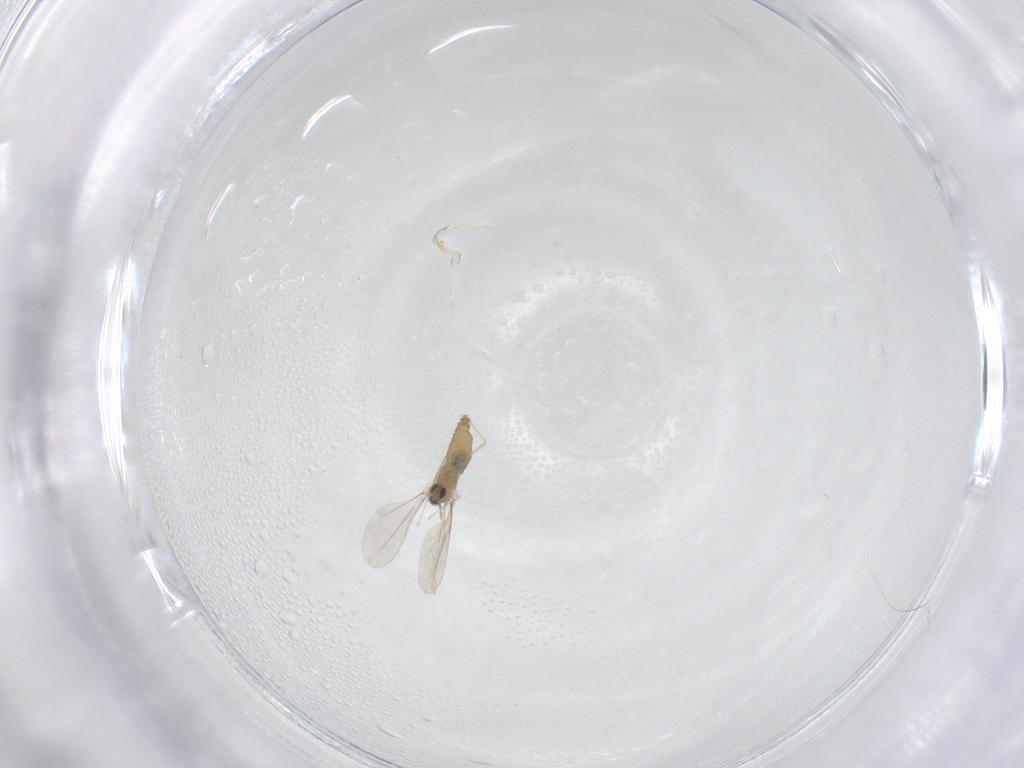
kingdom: Animalia
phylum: Arthropoda
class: Insecta
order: Diptera
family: Cecidomyiidae
